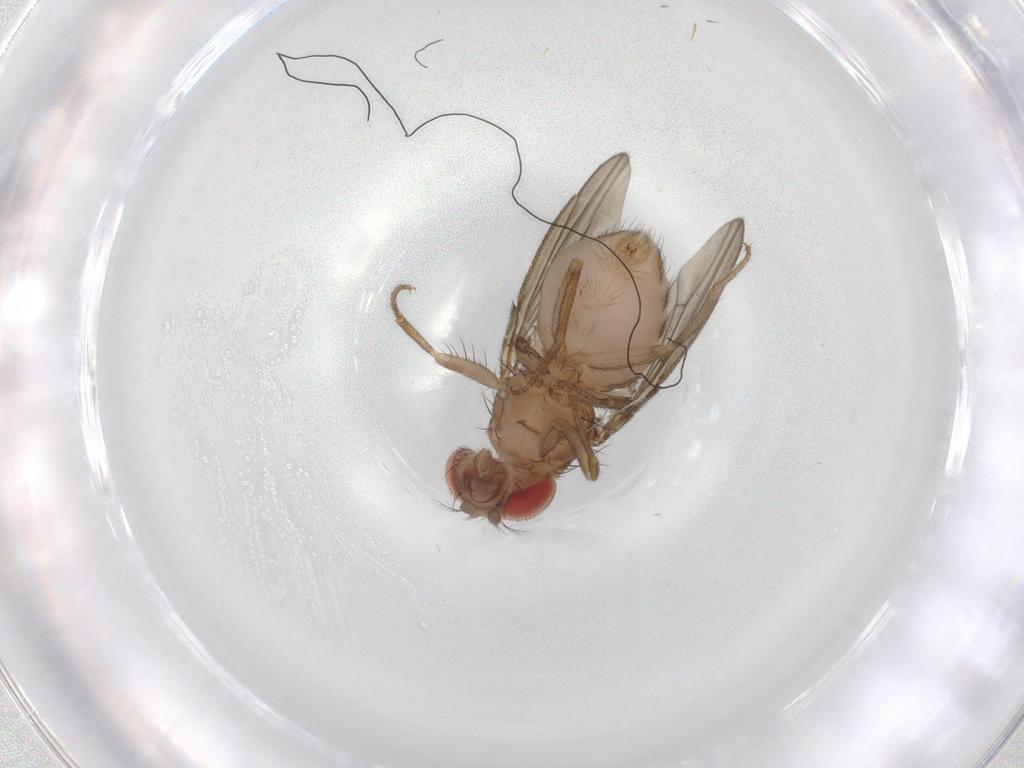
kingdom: Animalia
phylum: Arthropoda
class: Insecta
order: Diptera
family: Drosophilidae
